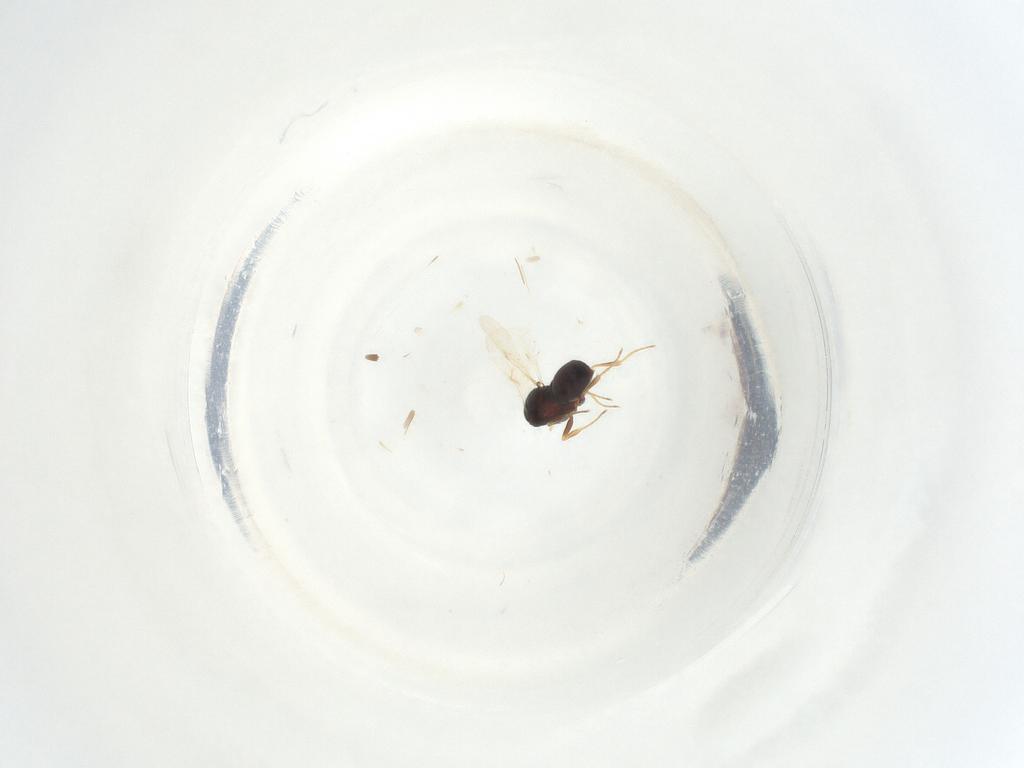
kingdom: Animalia
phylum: Arthropoda
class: Insecta
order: Hymenoptera
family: Scelionidae
